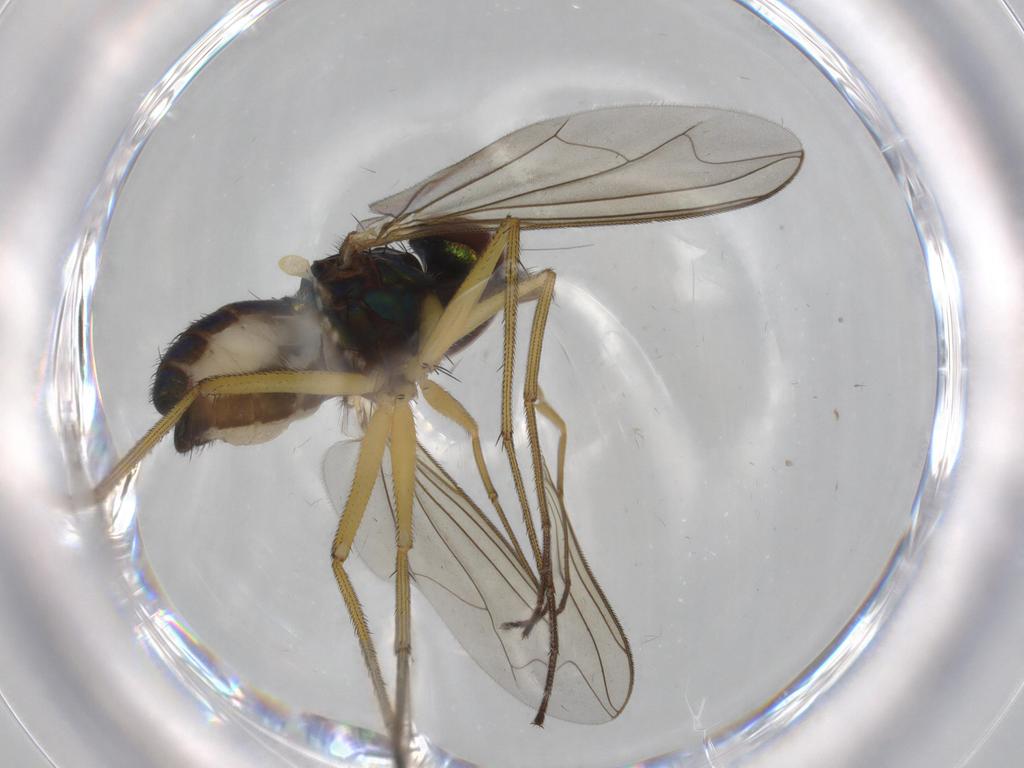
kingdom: Animalia
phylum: Arthropoda
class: Insecta
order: Diptera
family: Dolichopodidae
